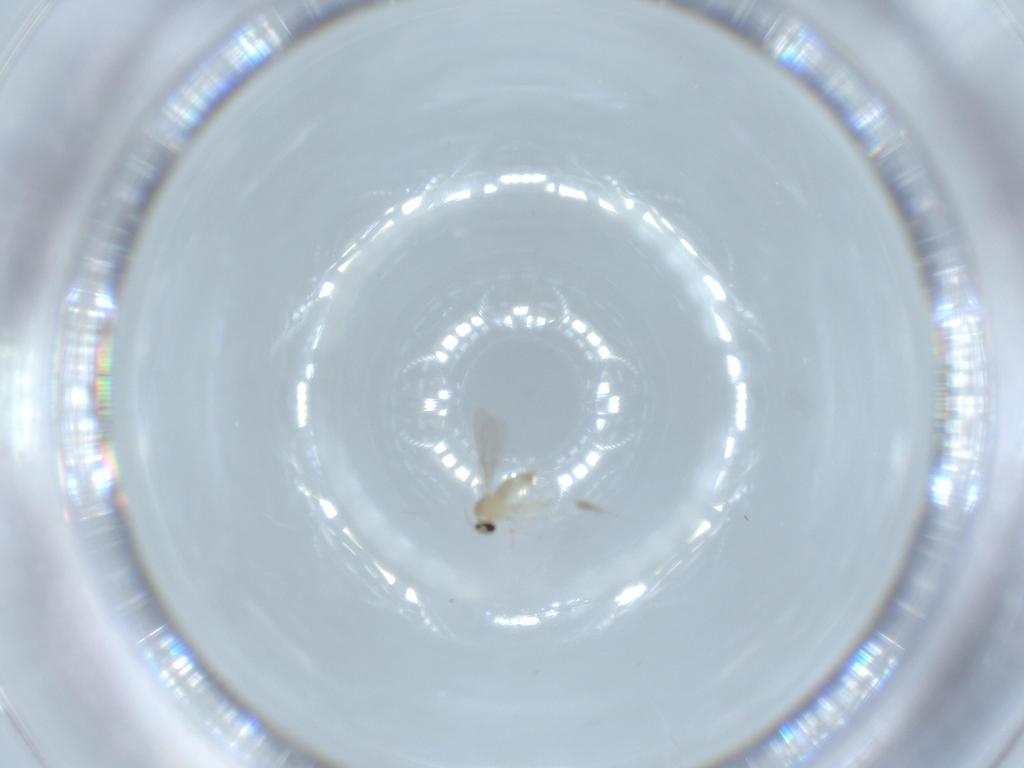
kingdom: Animalia
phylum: Arthropoda
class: Insecta
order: Diptera
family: Cecidomyiidae
